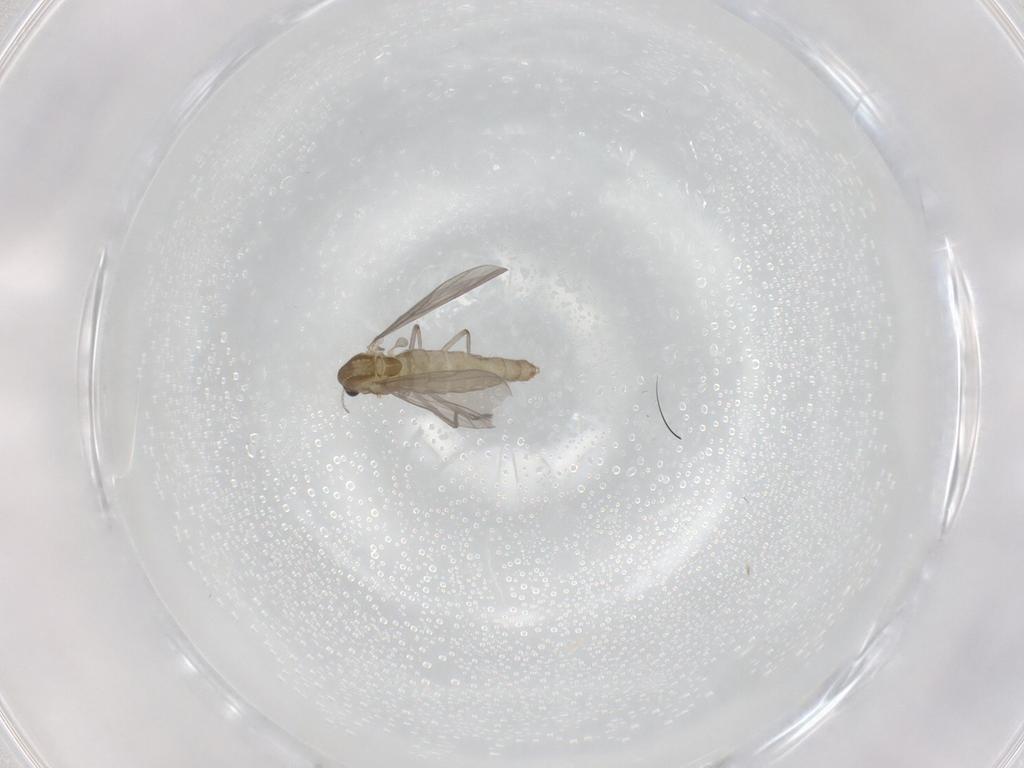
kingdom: Animalia
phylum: Arthropoda
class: Insecta
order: Diptera
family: Chironomidae
